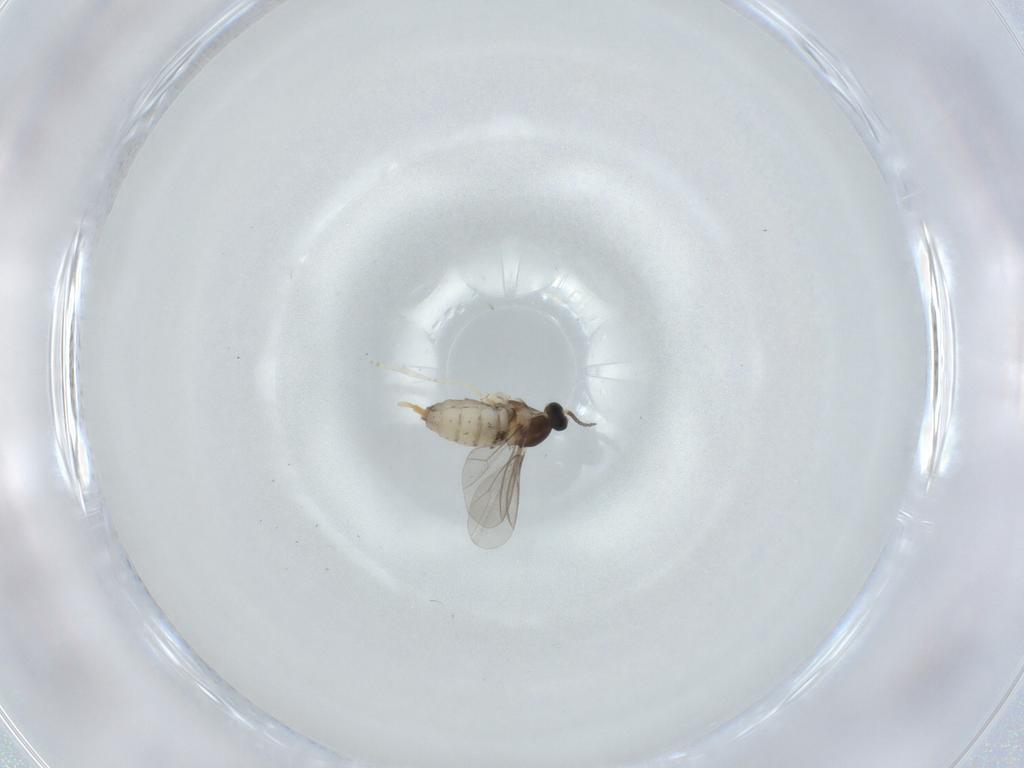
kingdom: Animalia
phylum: Arthropoda
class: Insecta
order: Diptera
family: Cecidomyiidae
